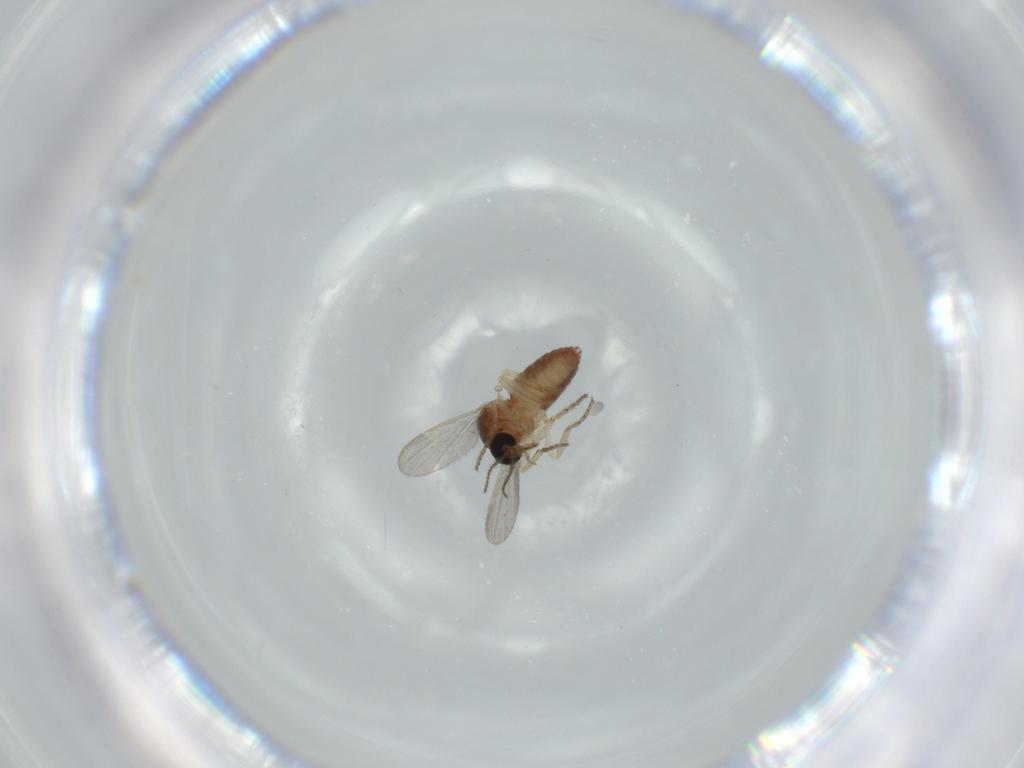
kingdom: Animalia
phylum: Arthropoda
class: Insecta
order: Diptera
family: Ceratopogonidae
